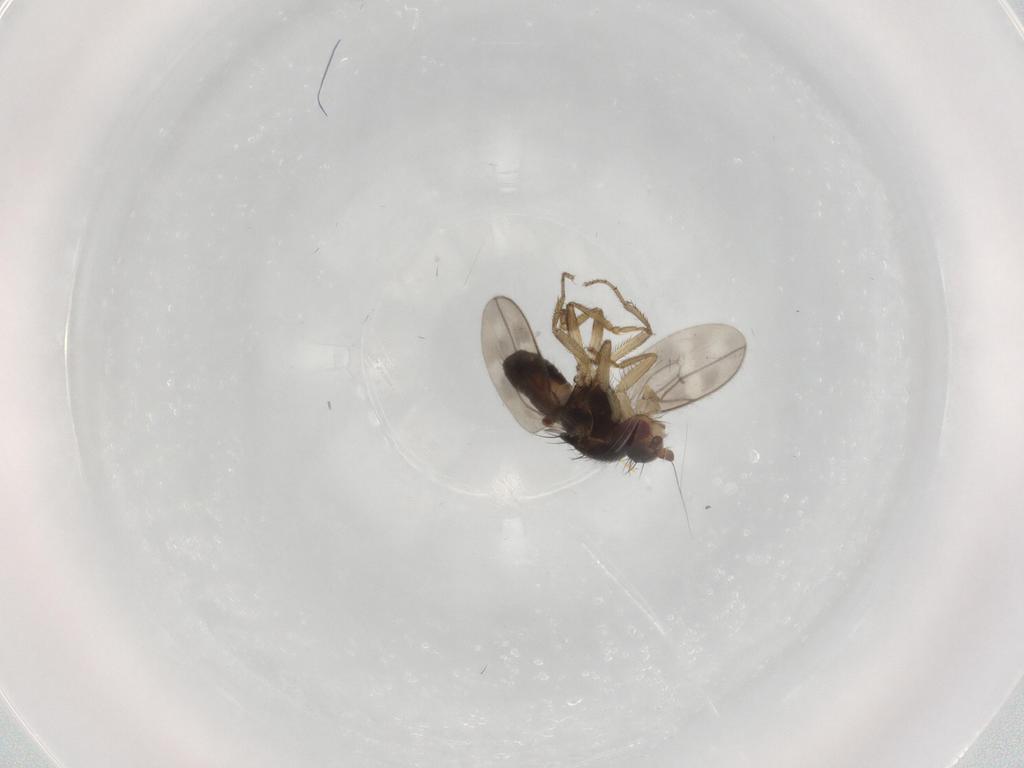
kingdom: Animalia
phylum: Arthropoda
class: Insecta
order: Diptera
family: Sphaeroceridae
